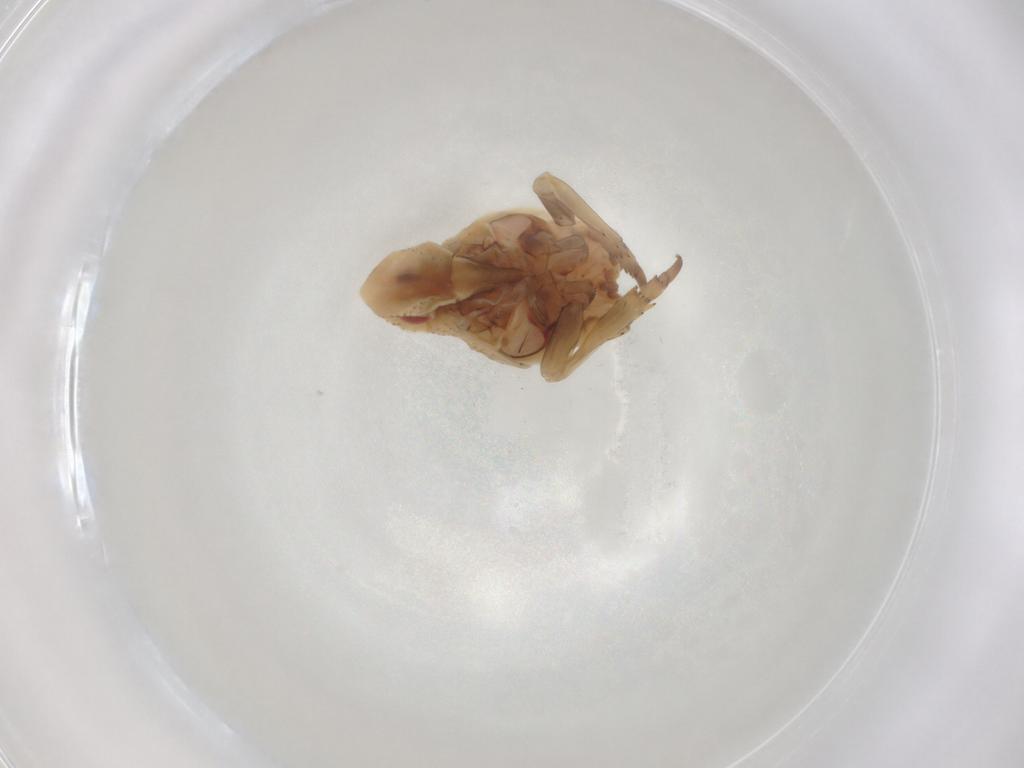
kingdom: Animalia
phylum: Arthropoda
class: Insecta
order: Hemiptera
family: Flatidae
